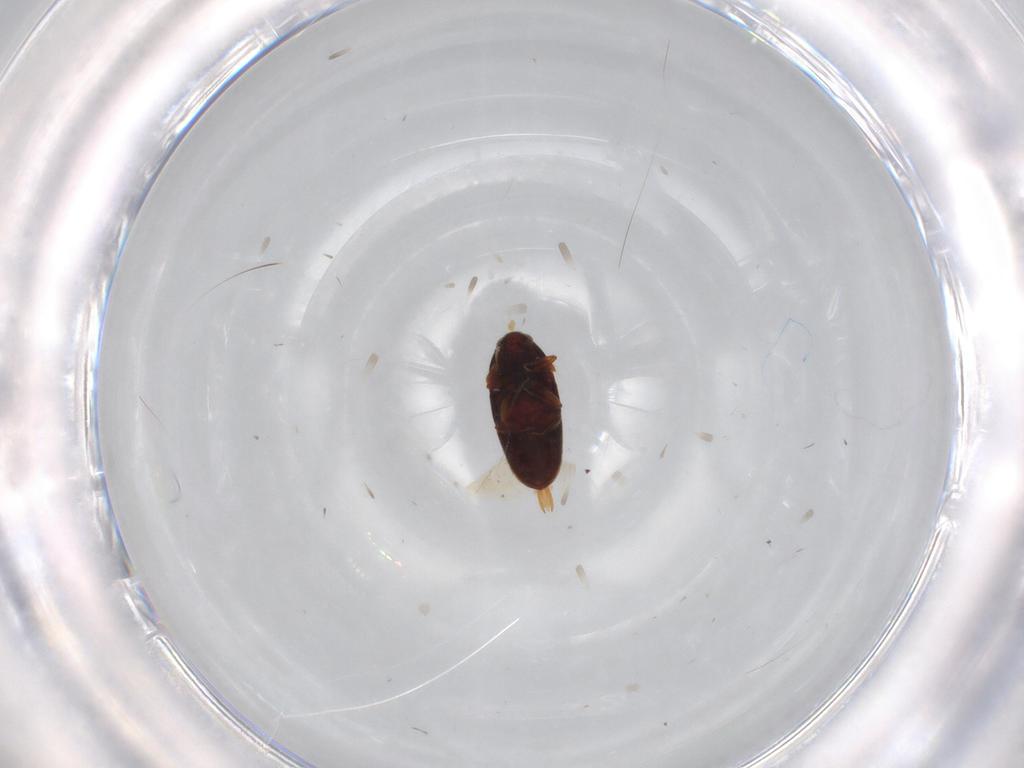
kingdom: Animalia
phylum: Arthropoda
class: Insecta
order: Coleoptera
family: Throscidae
